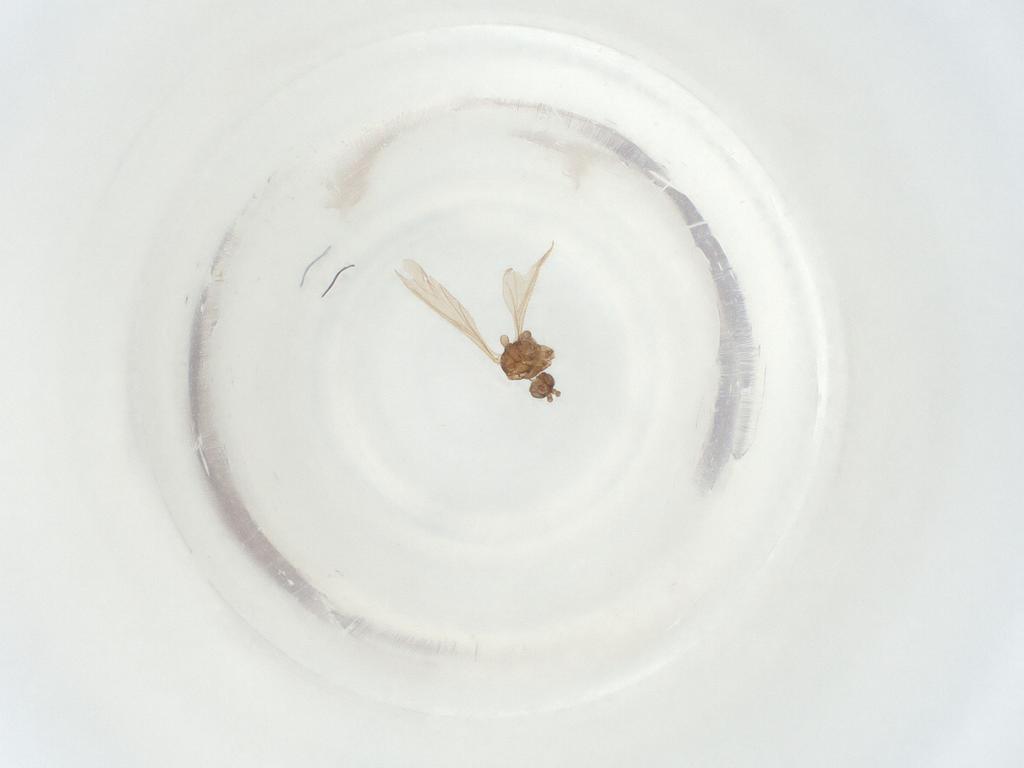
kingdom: Animalia
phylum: Arthropoda
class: Insecta
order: Diptera
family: Sciaridae
